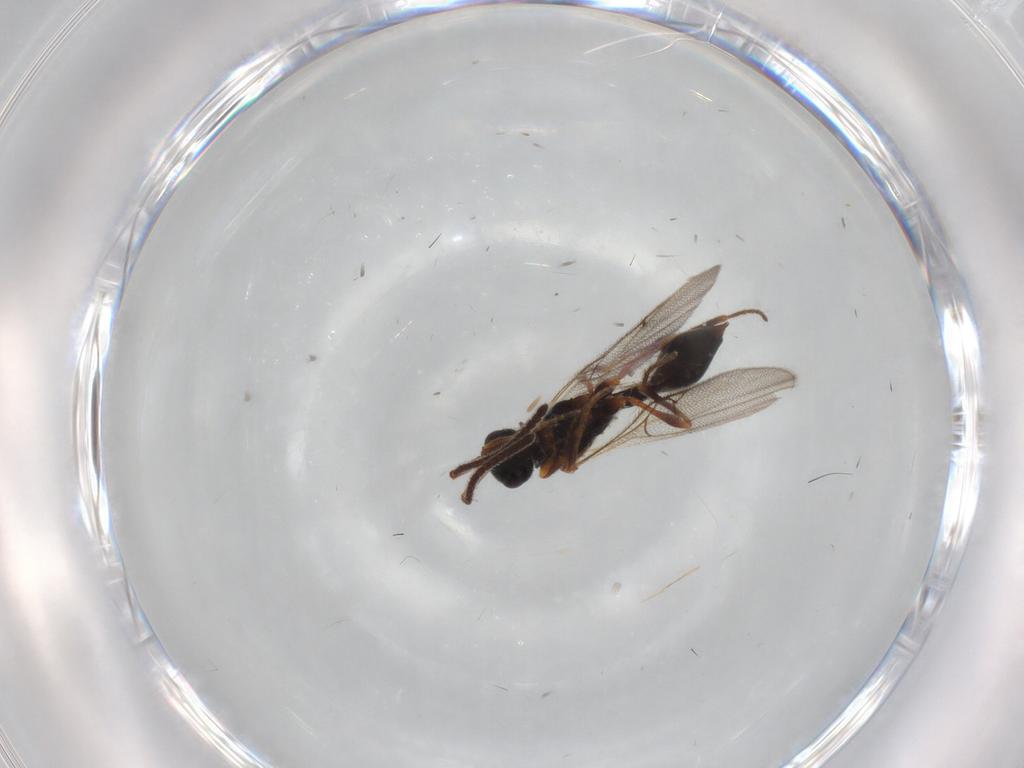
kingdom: Animalia
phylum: Arthropoda
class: Insecta
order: Hymenoptera
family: Diapriidae
